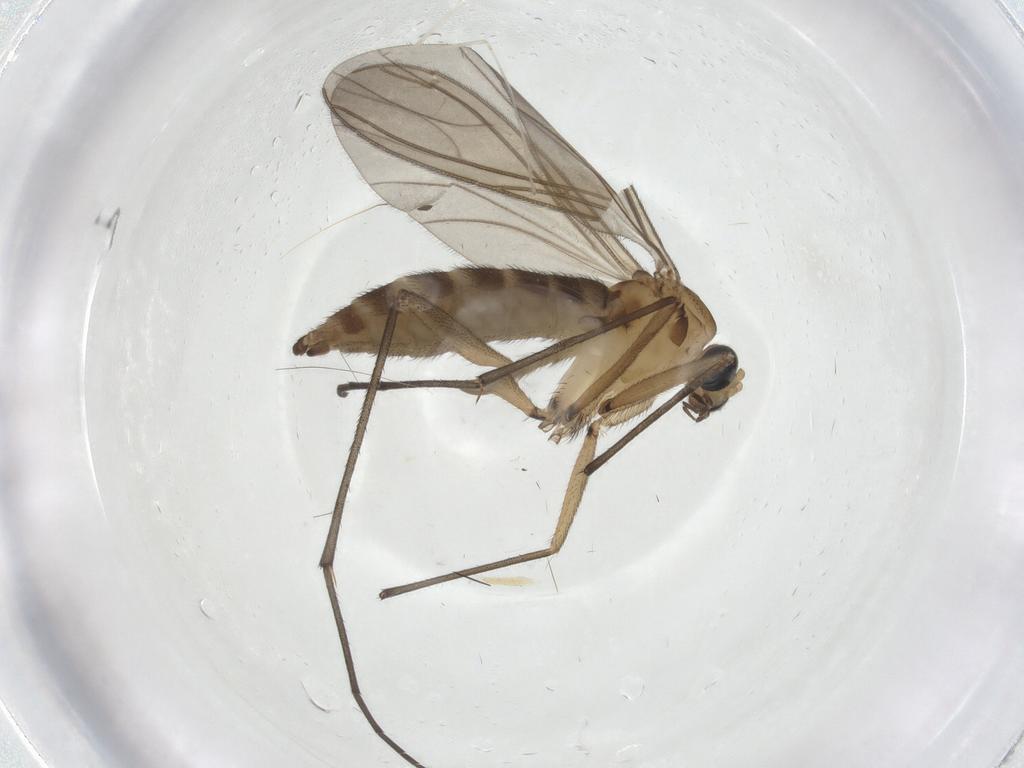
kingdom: Animalia
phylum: Arthropoda
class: Insecta
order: Diptera
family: Sciaridae
